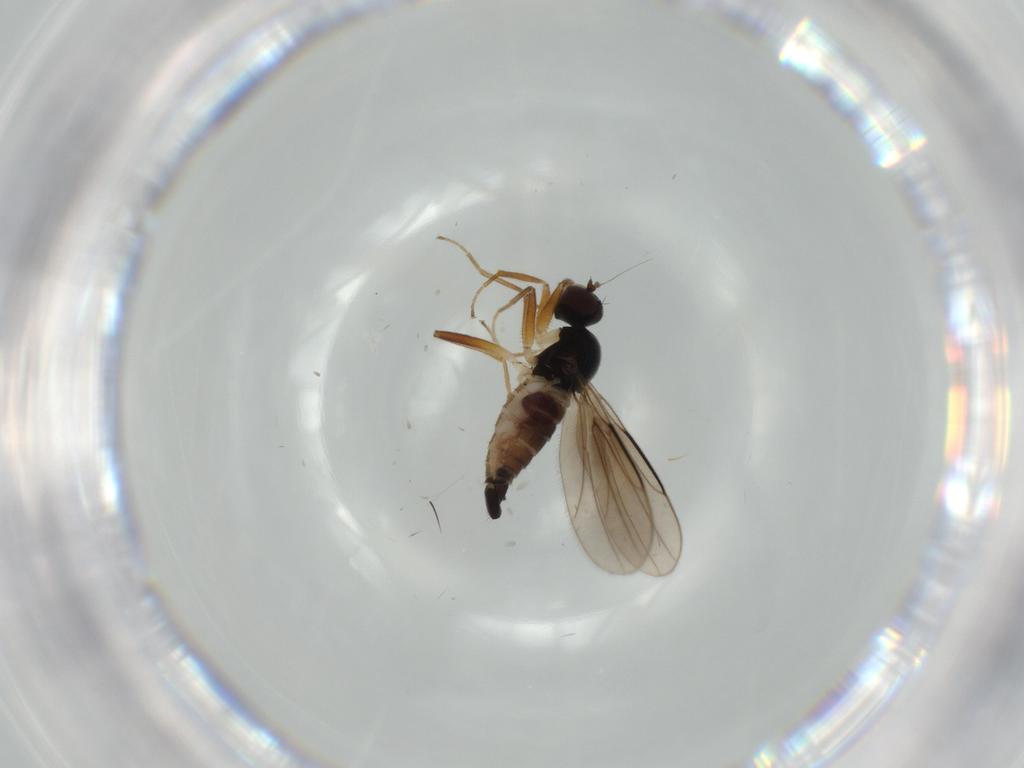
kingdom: Animalia
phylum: Arthropoda
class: Insecta
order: Diptera
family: Hybotidae
